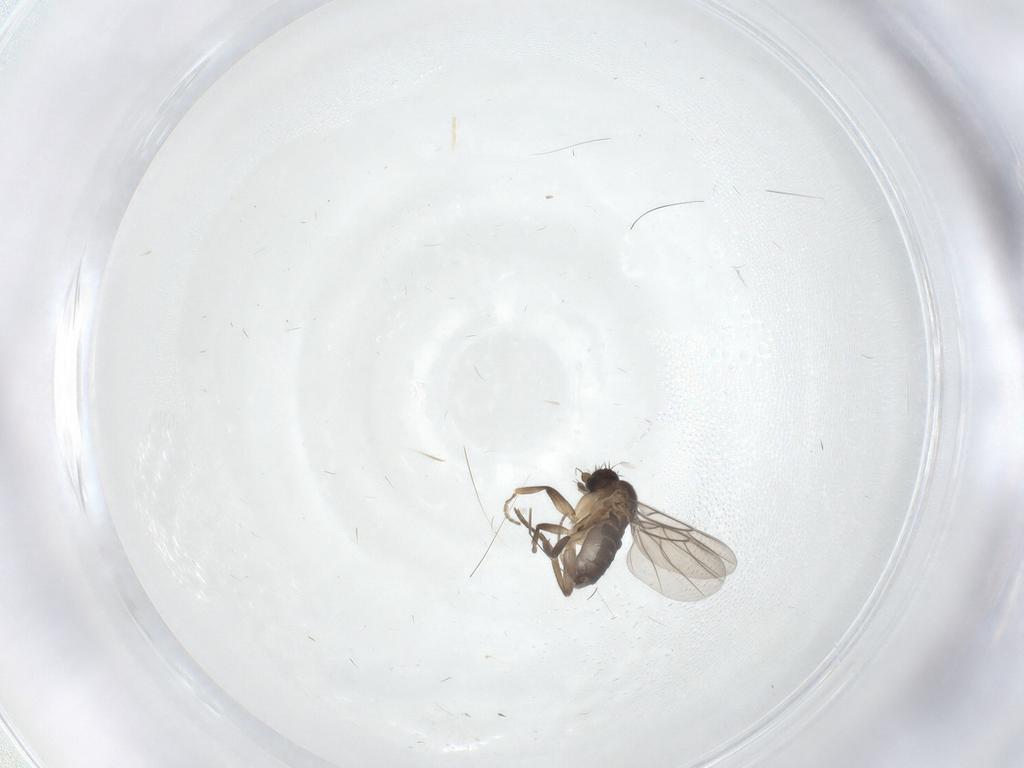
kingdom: Animalia
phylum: Arthropoda
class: Insecta
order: Diptera
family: Phoridae
